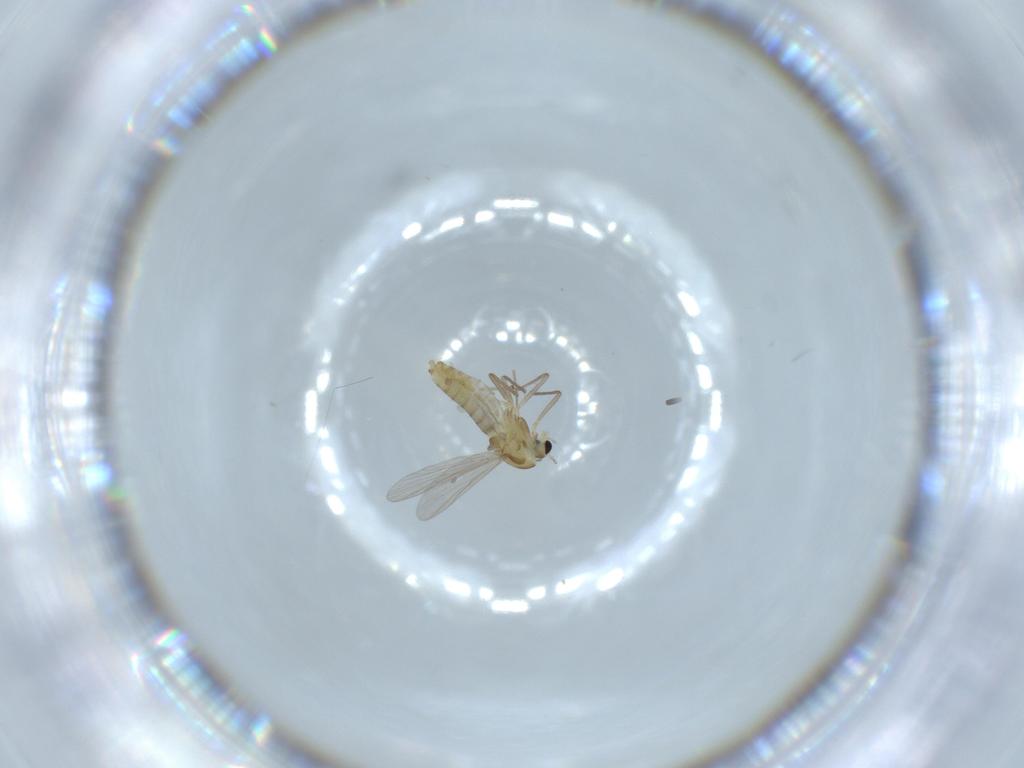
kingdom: Animalia
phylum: Arthropoda
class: Insecta
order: Diptera
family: Chironomidae
